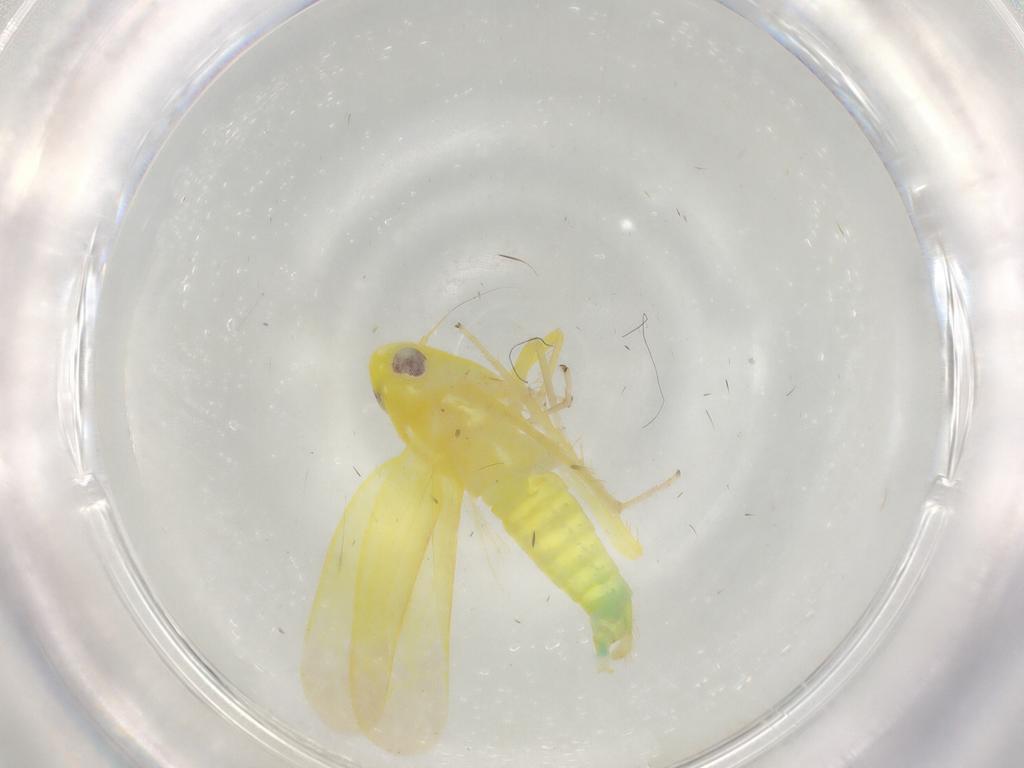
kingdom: Animalia
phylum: Arthropoda
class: Insecta
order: Hemiptera
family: Cicadellidae
